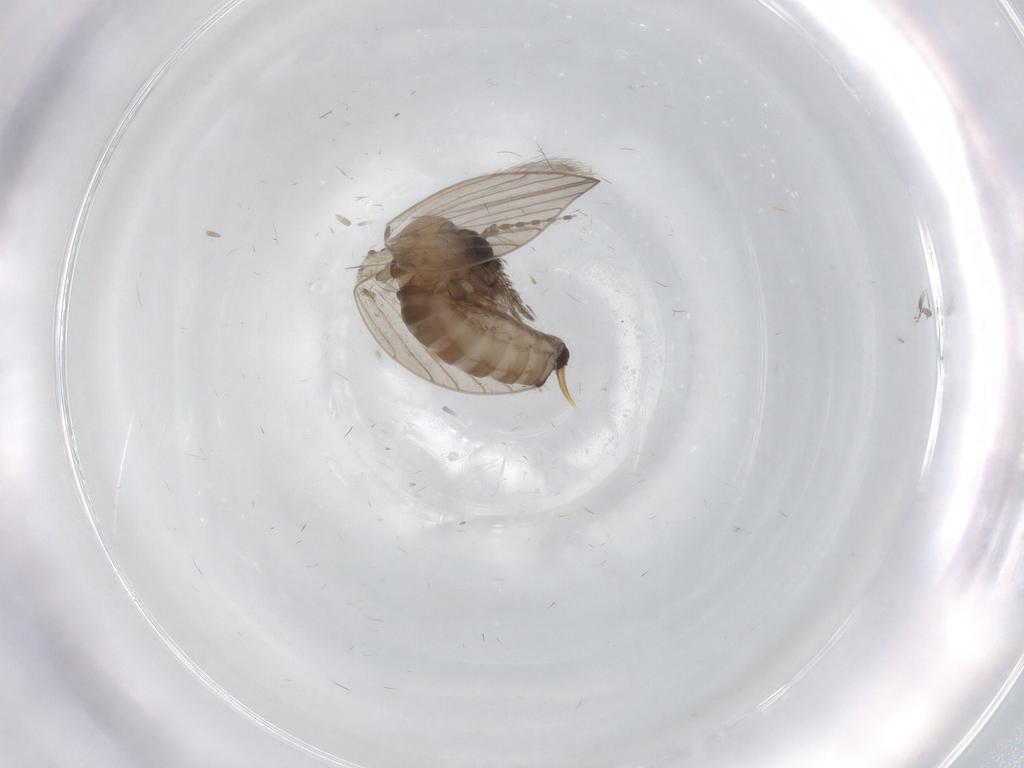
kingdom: Animalia
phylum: Arthropoda
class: Insecta
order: Diptera
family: Psychodidae
